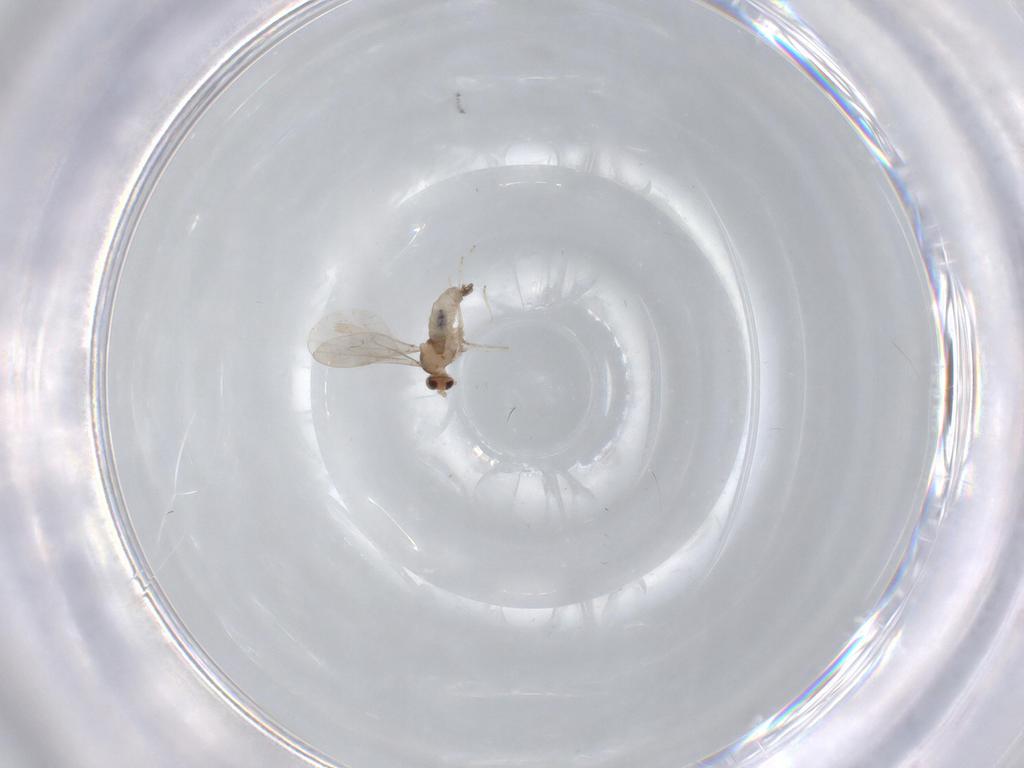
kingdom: Animalia
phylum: Arthropoda
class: Insecta
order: Diptera
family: Cecidomyiidae
